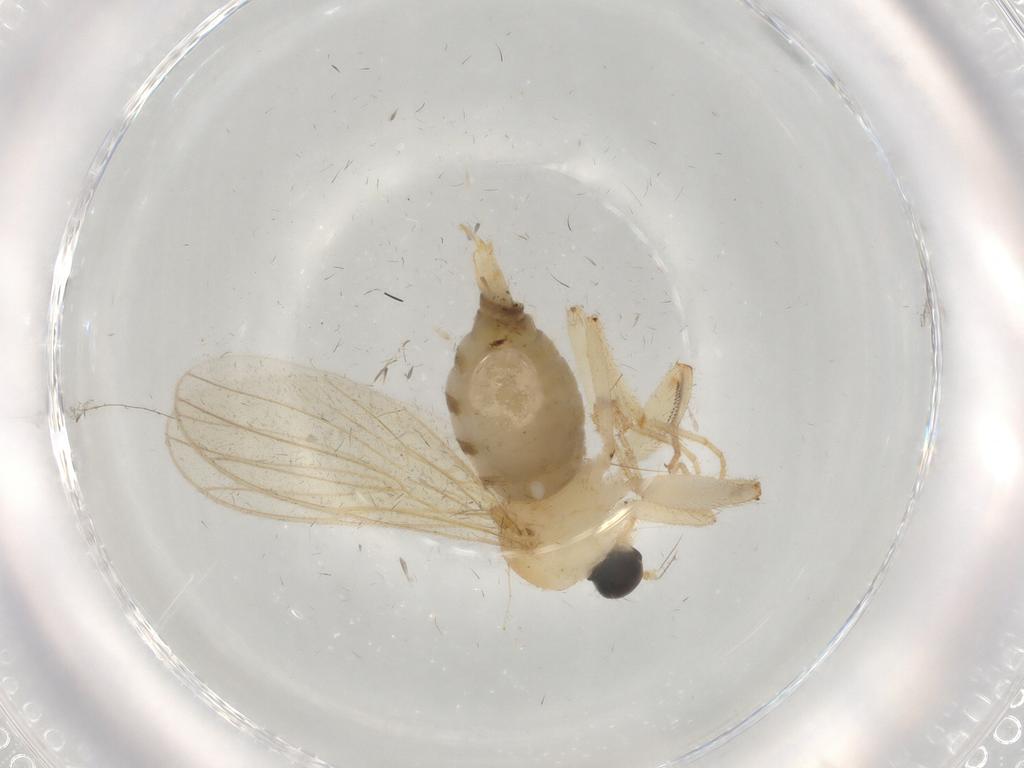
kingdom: Animalia
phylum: Arthropoda
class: Insecta
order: Diptera
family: Hybotidae
